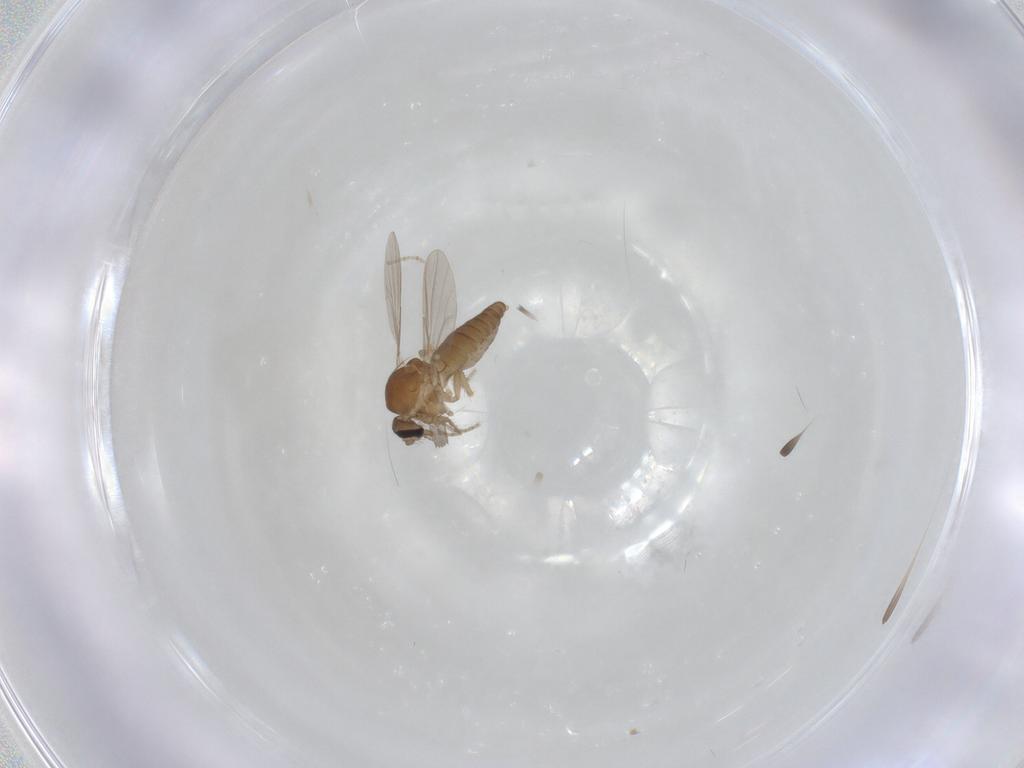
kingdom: Animalia
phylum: Arthropoda
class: Insecta
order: Diptera
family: Ceratopogonidae
